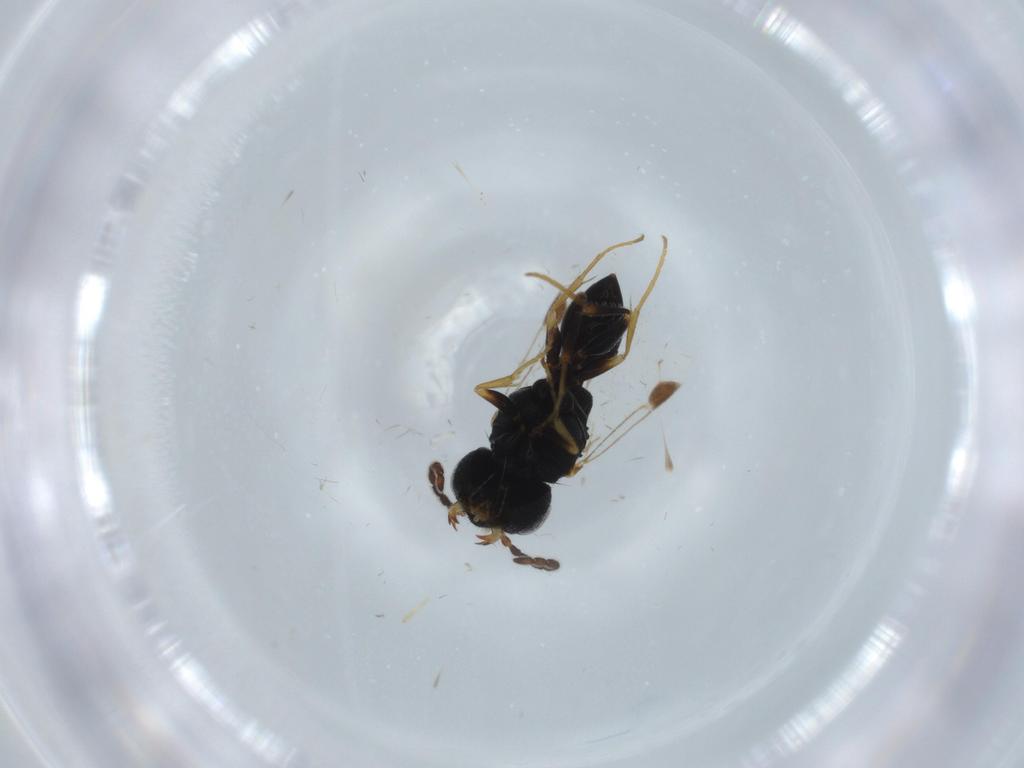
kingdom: Animalia
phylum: Arthropoda
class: Insecta
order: Hymenoptera
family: Dryinidae
